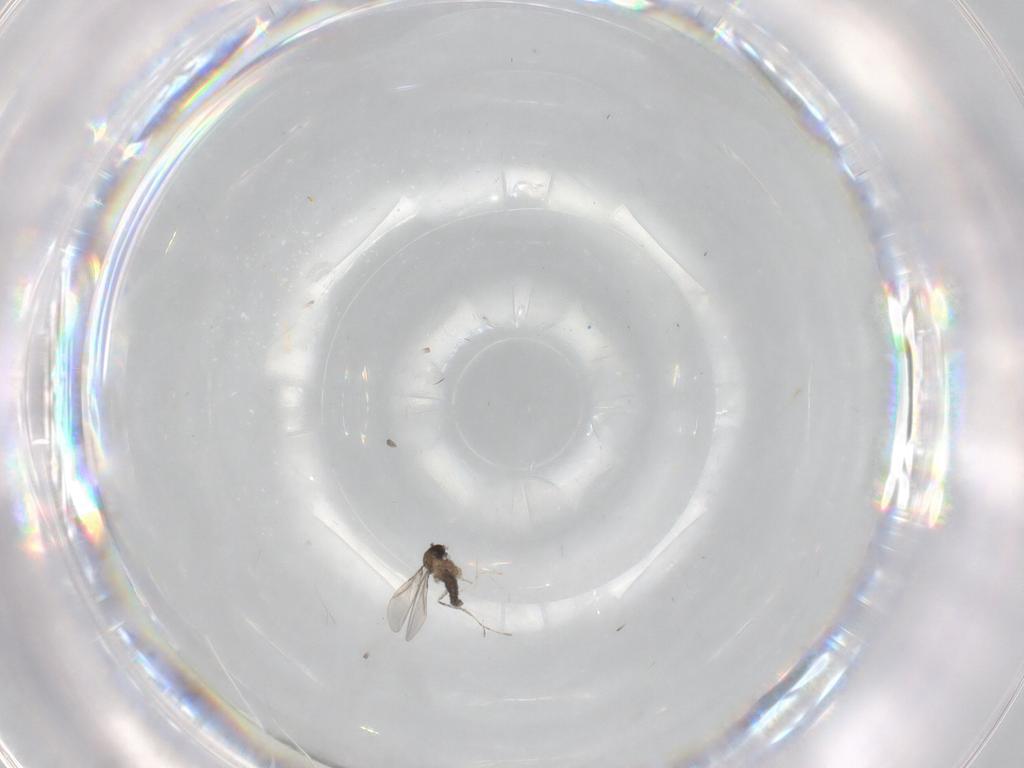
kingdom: Animalia
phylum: Arthropoda
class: Insecta
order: Diptera
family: Cecidomyiidae
